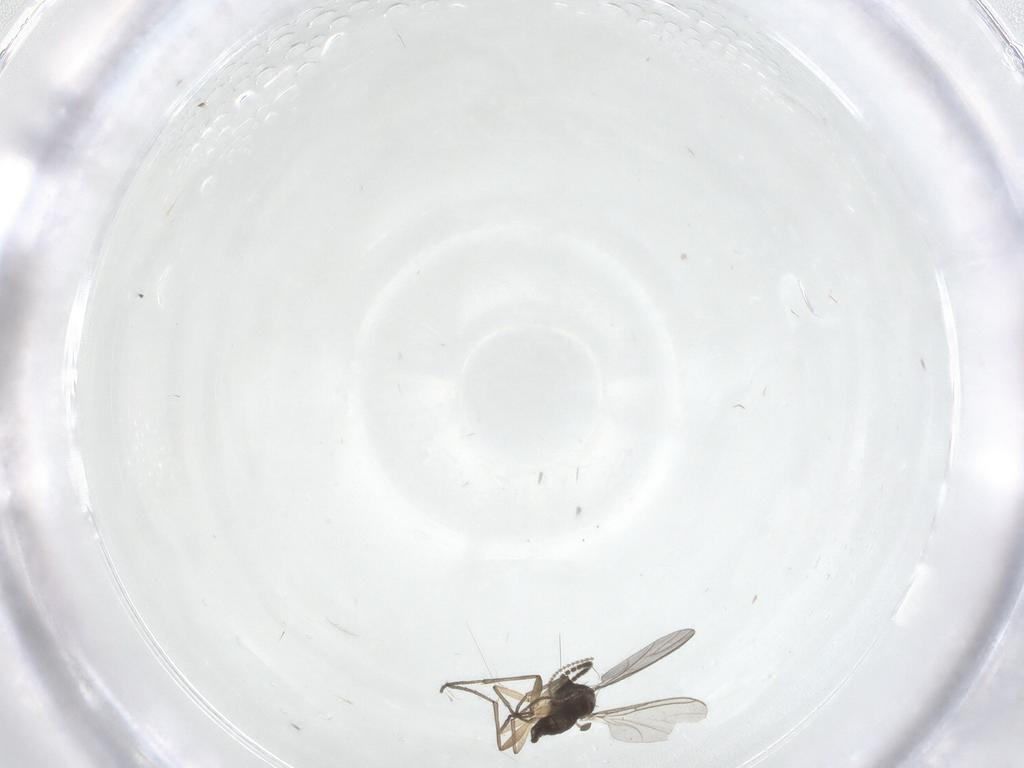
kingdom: Animalia
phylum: Arthropoda
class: Insecta
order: Diptera
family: Cecidomyiidae
